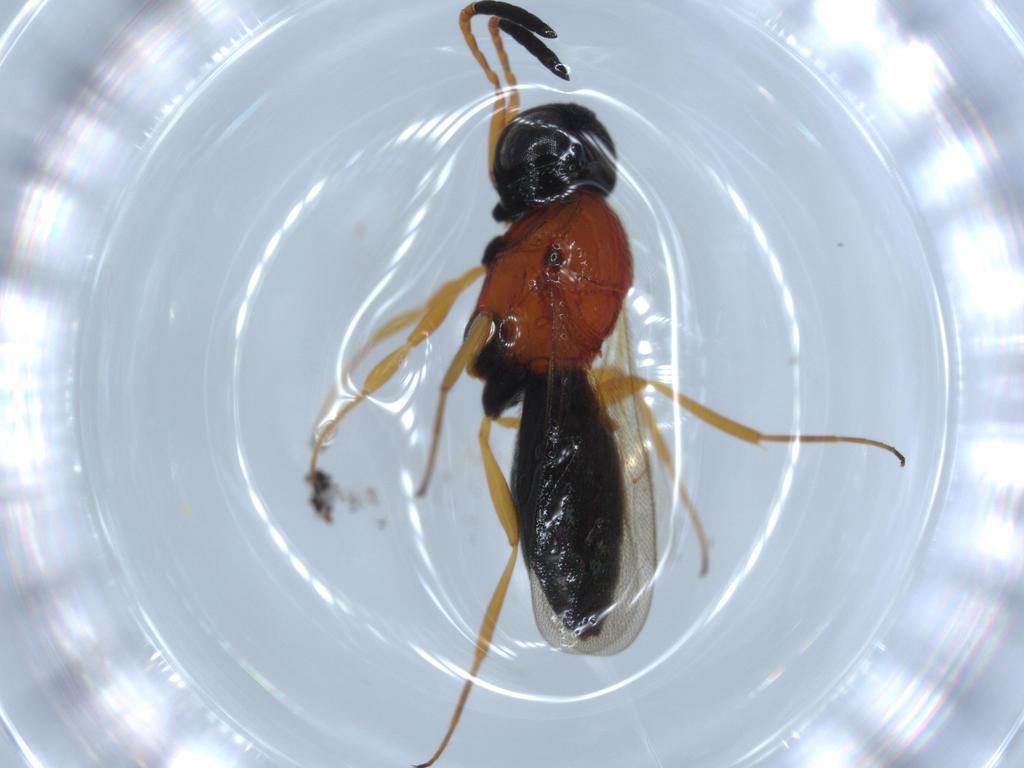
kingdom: Animalia
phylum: Arthropoda
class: Insecta
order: Hymenoptera
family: Scelionidae
